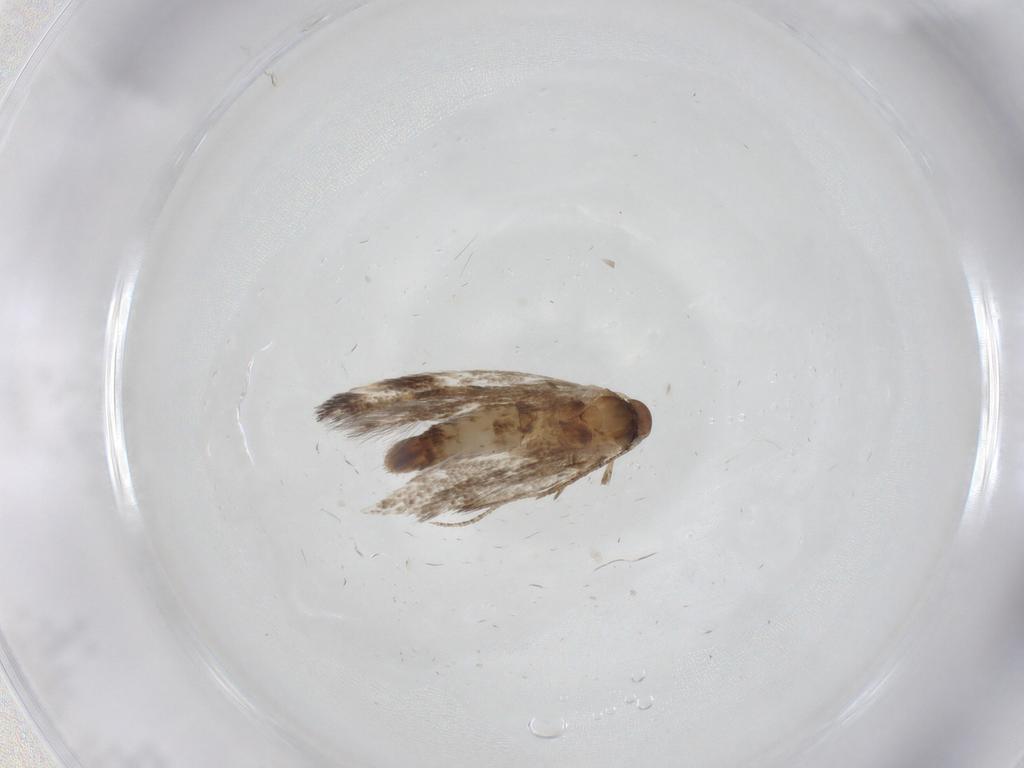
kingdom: Animalia
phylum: Arthropoda
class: Insecta
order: Lepidoptera
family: Elachistidae
